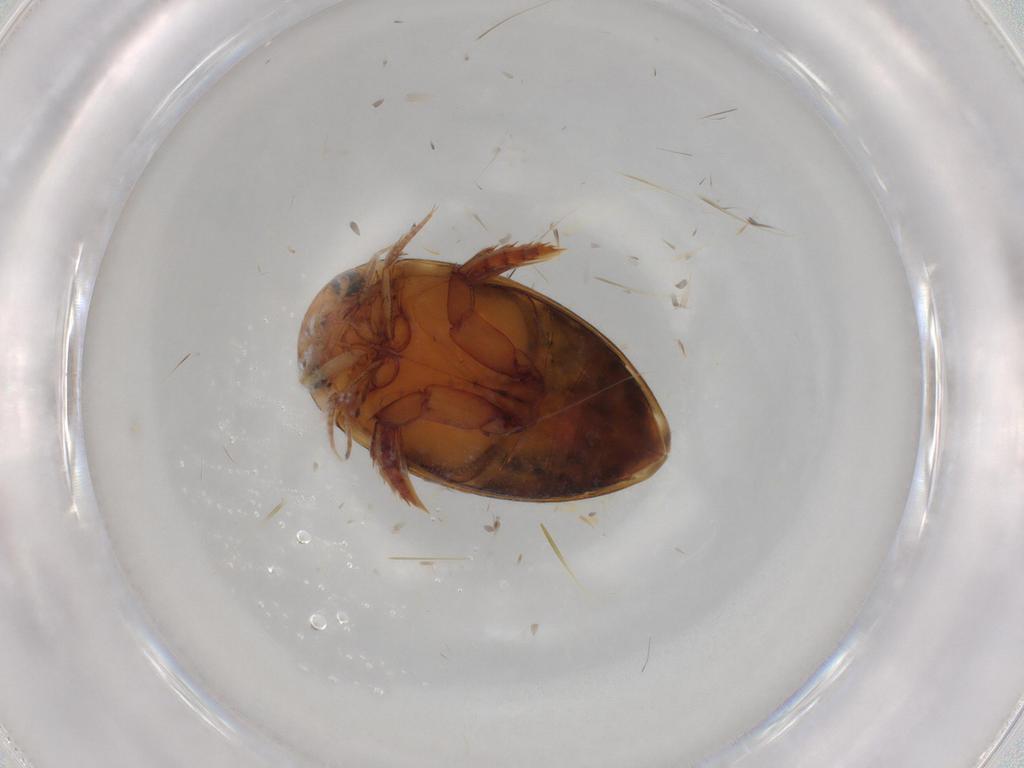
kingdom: Animalia
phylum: Arthropoda
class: Insecta
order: Coleoptera
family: Dytiscidae
